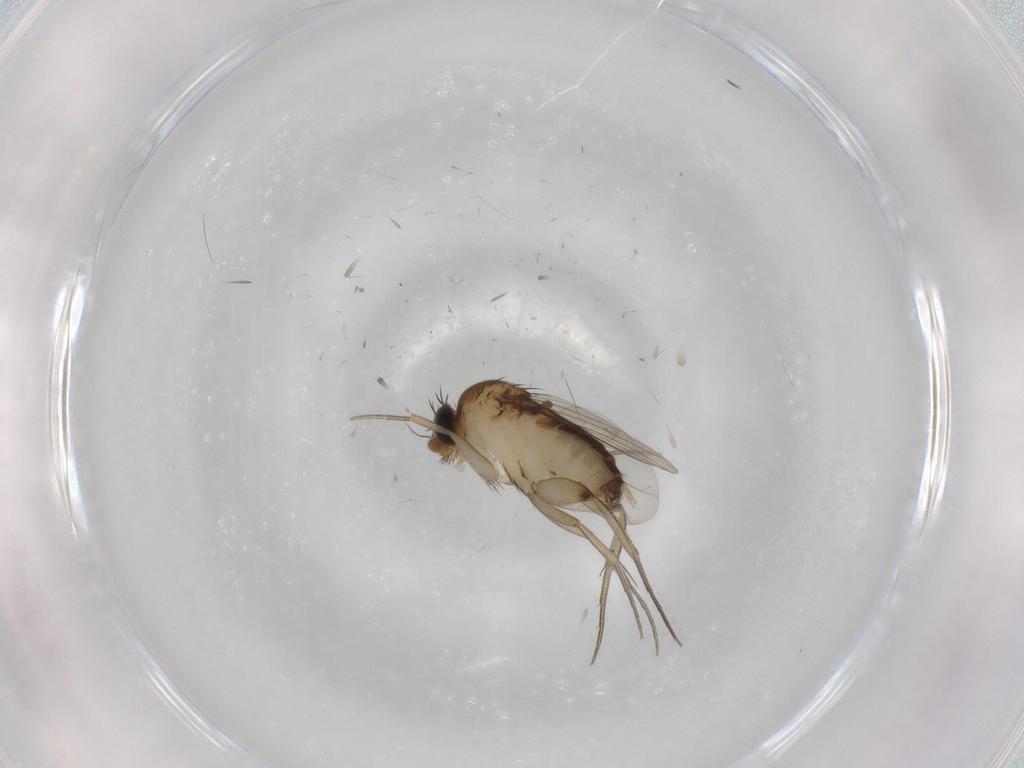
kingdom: Animalia
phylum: Arthropoda
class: Insecta
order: Diptera
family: Phoridae
